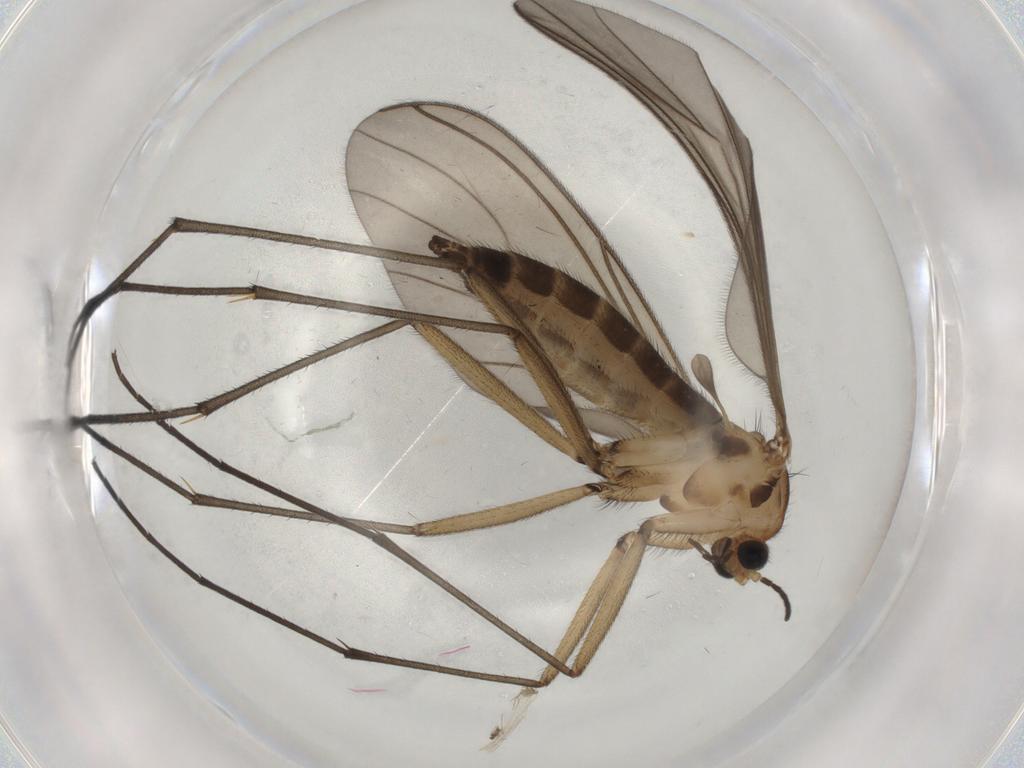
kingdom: Animalia
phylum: Arthropoda
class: Insecta
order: Diptera
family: Sciaridae
